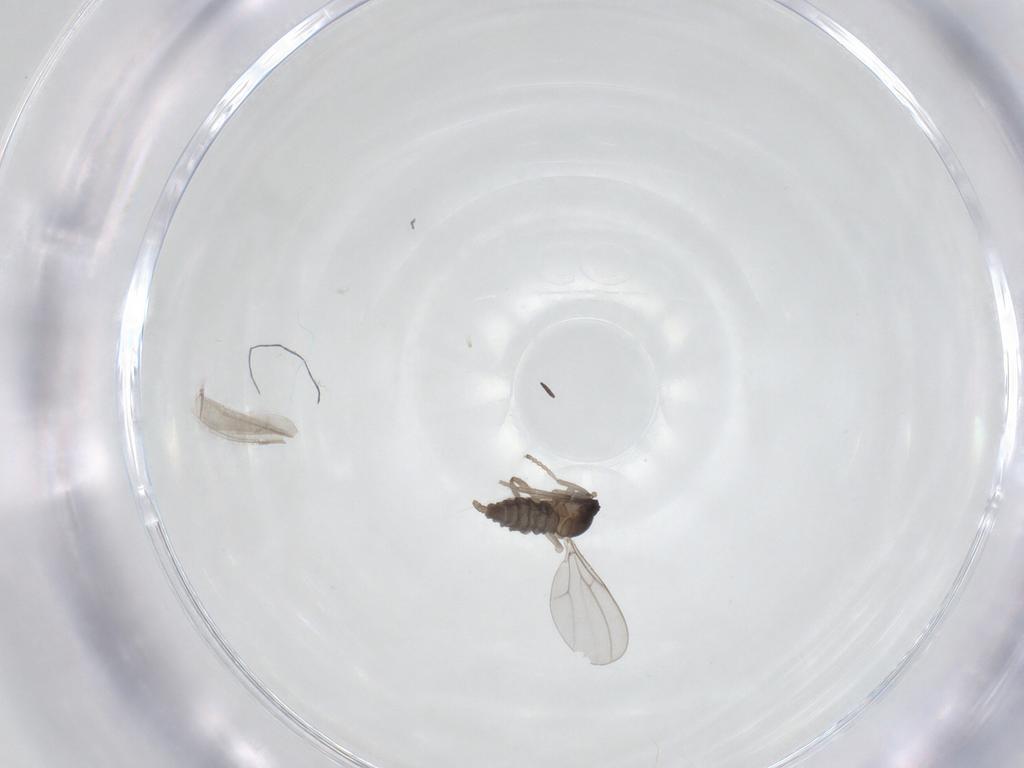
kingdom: Animalia
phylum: Arthropoda
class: Insecta
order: Diptera
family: Cecidomyiidae
